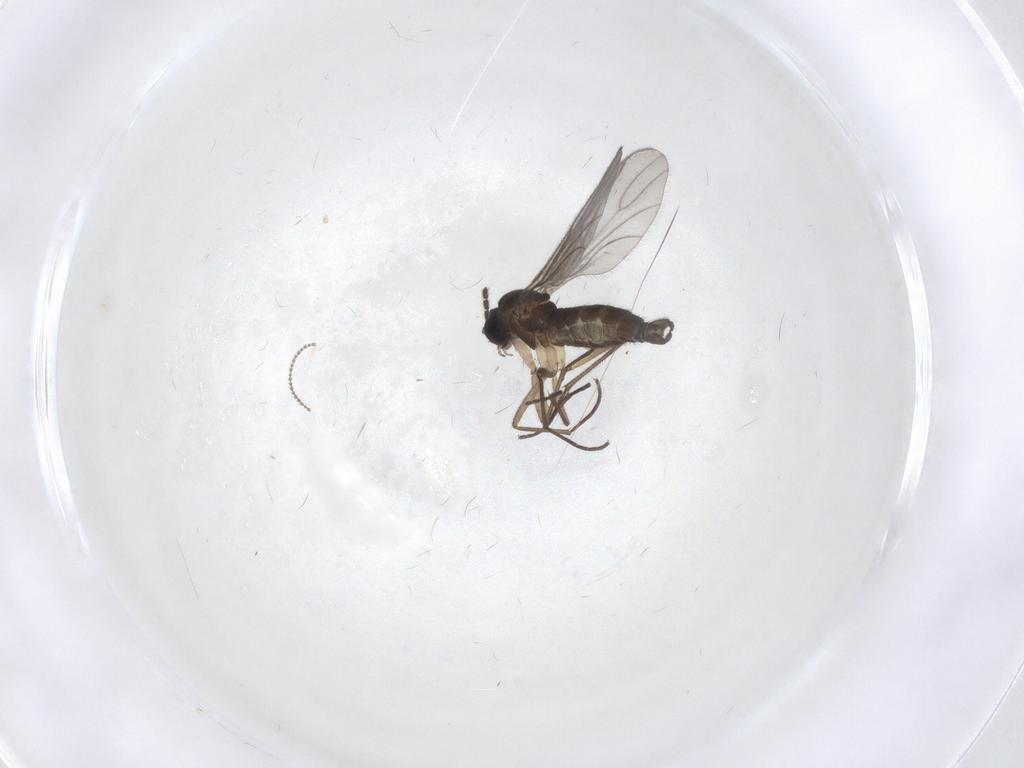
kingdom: Animalia
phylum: Arthropoda
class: Insecta
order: Diptera
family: Sciaridae
